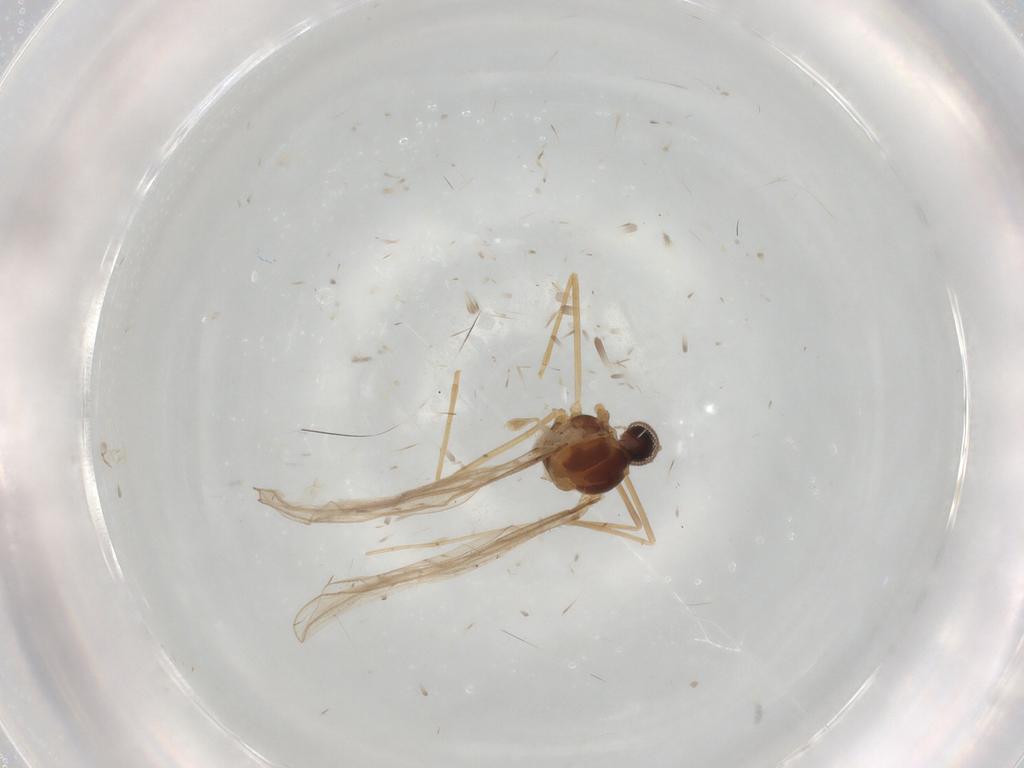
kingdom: Animalia
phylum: Arthropoda
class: Insecta
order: Diptera
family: Cecidomyiidae
